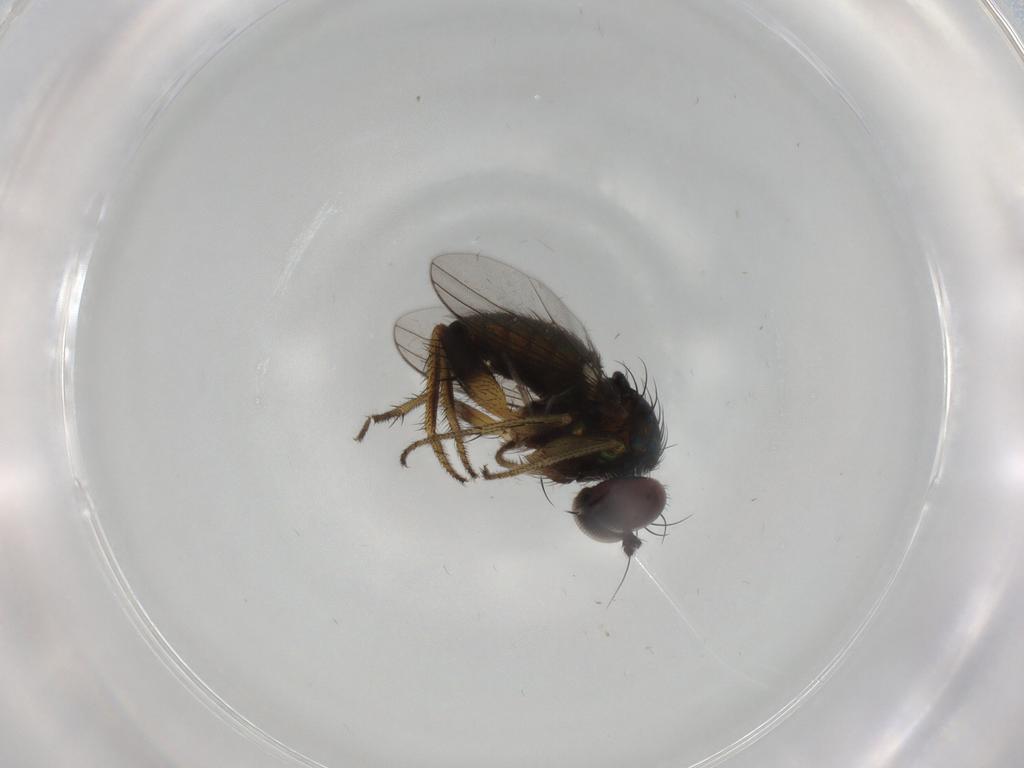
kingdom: Animalia
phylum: Arthropoda
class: Insecta
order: Diptera
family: Dolichopodidae
